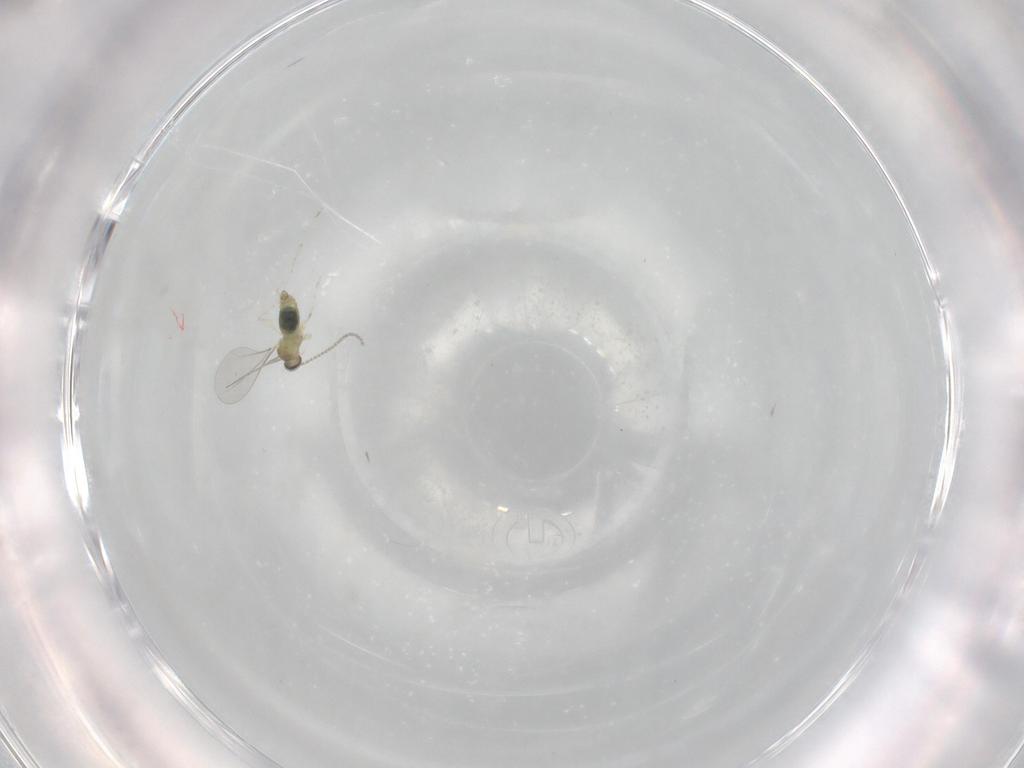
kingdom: Animalia
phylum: Arthropoda
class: Insecta
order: Diptera
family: Cecidomyiidae
